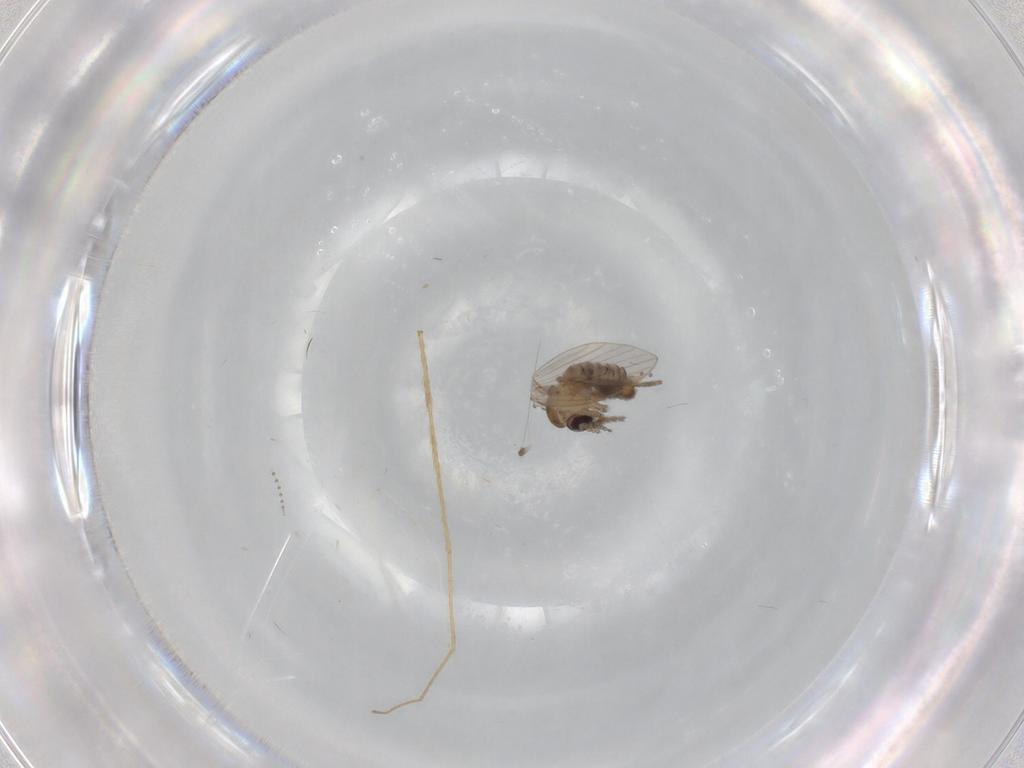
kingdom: Animalia
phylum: Arthropoda
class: Insecta
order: Diptera
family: Psychodidae
